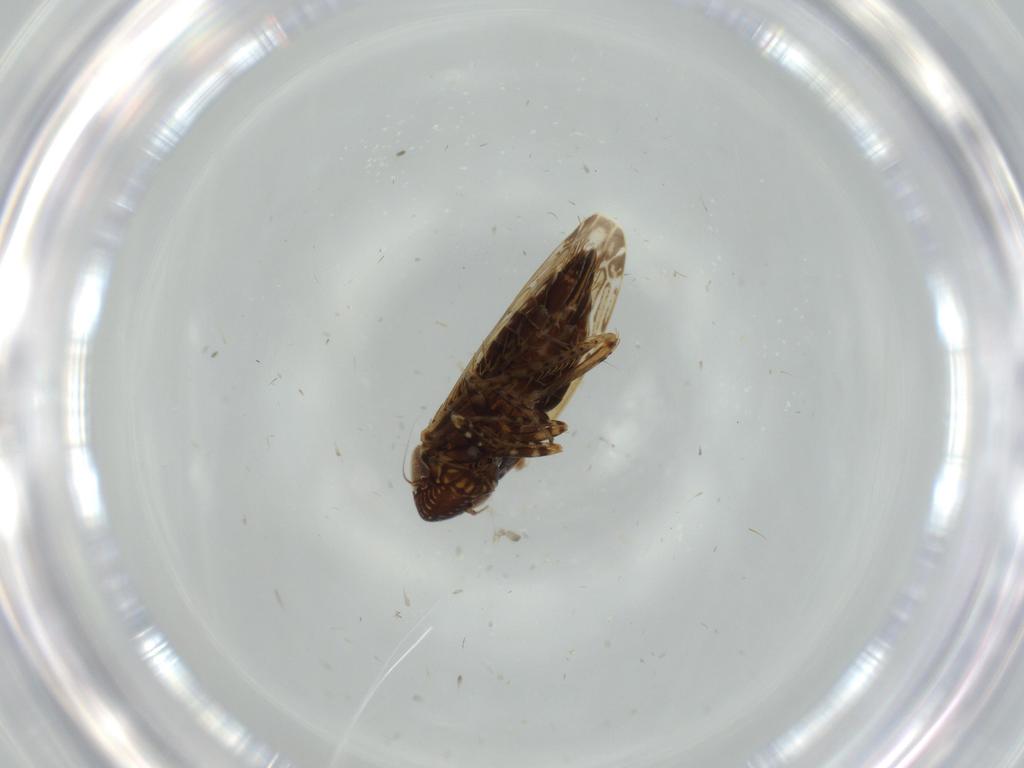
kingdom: Animalia
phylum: Arthropoda
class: Insecta
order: Hemiptera
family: Cicadellidae
